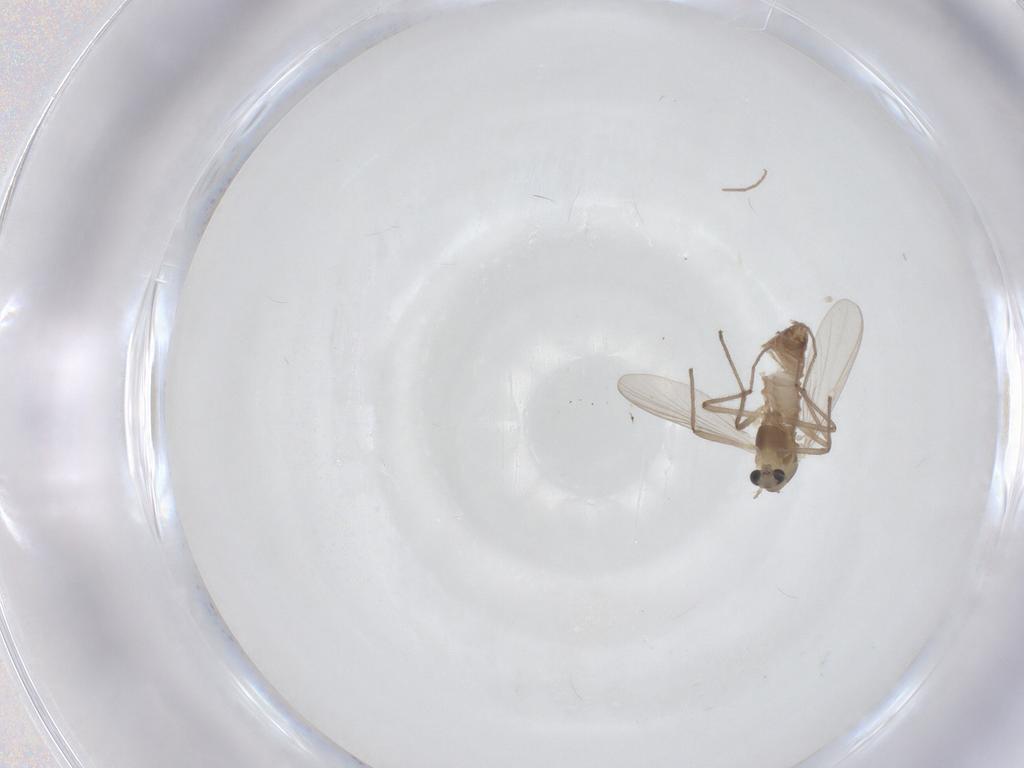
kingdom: Animalia
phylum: Arthropoda
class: Insecta
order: Diptera
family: Chironomidae
